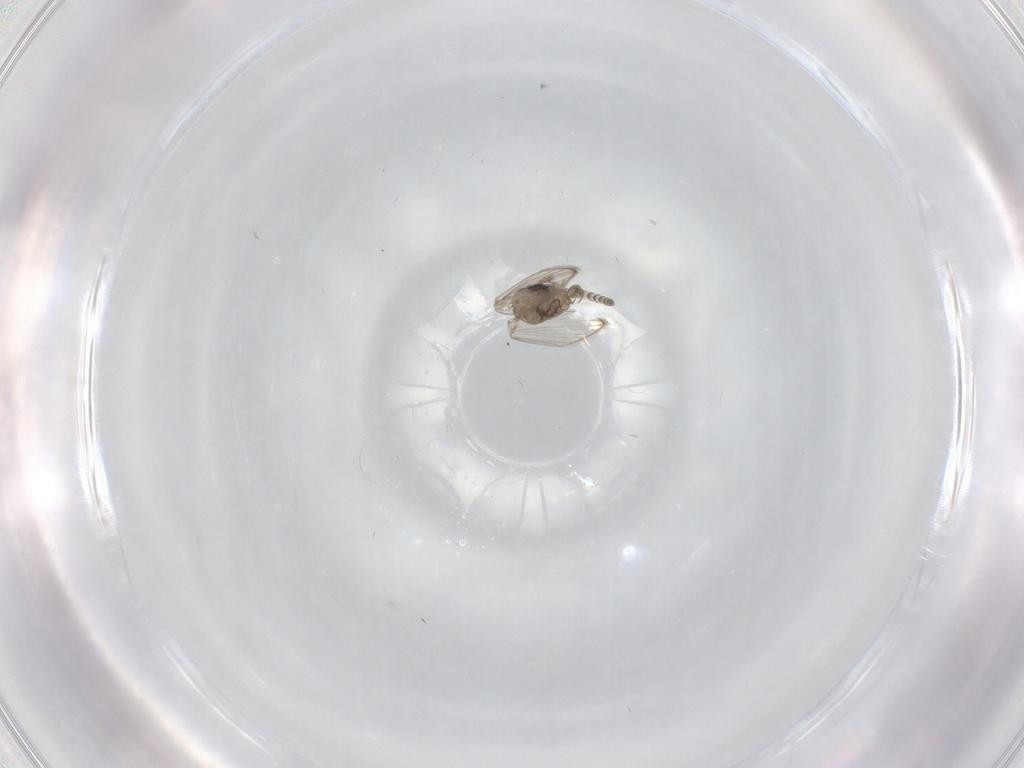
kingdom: Animalia
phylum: Arthropoda
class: Insecta
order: Diptera
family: Psychodidae
